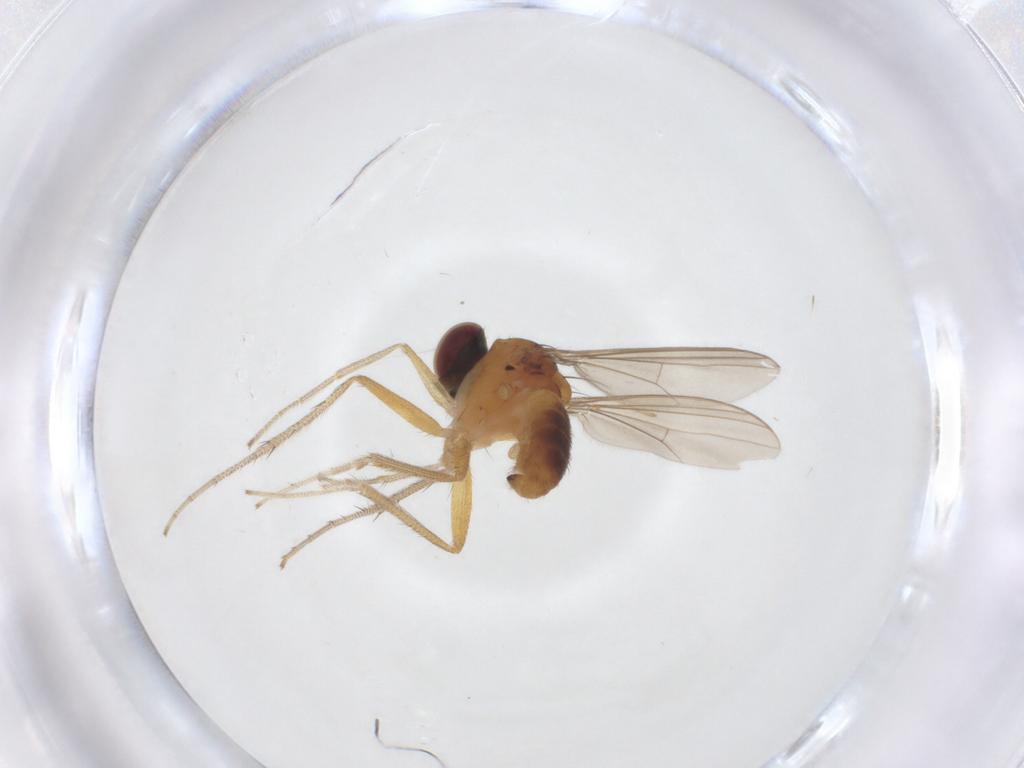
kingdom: Animalia
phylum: Arthropoda
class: Insecta
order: Diptera
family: Dolichopodidae
